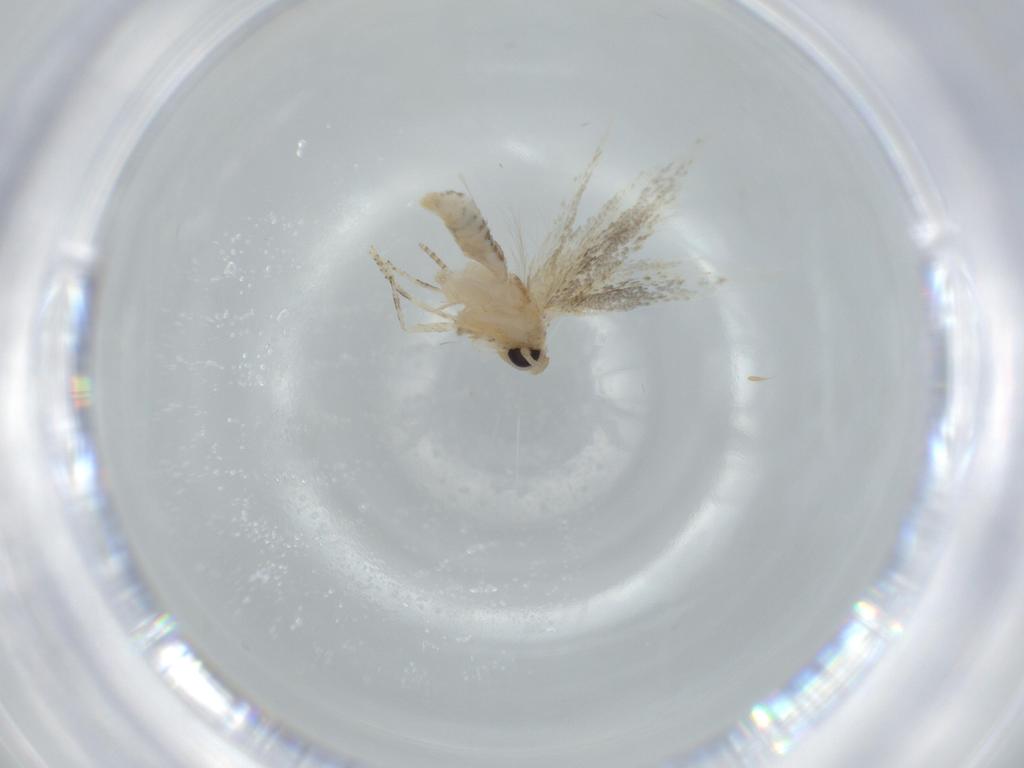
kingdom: Animalia
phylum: Arthropoda
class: Insecta
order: Lepidoptera
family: Bucculatricidae
